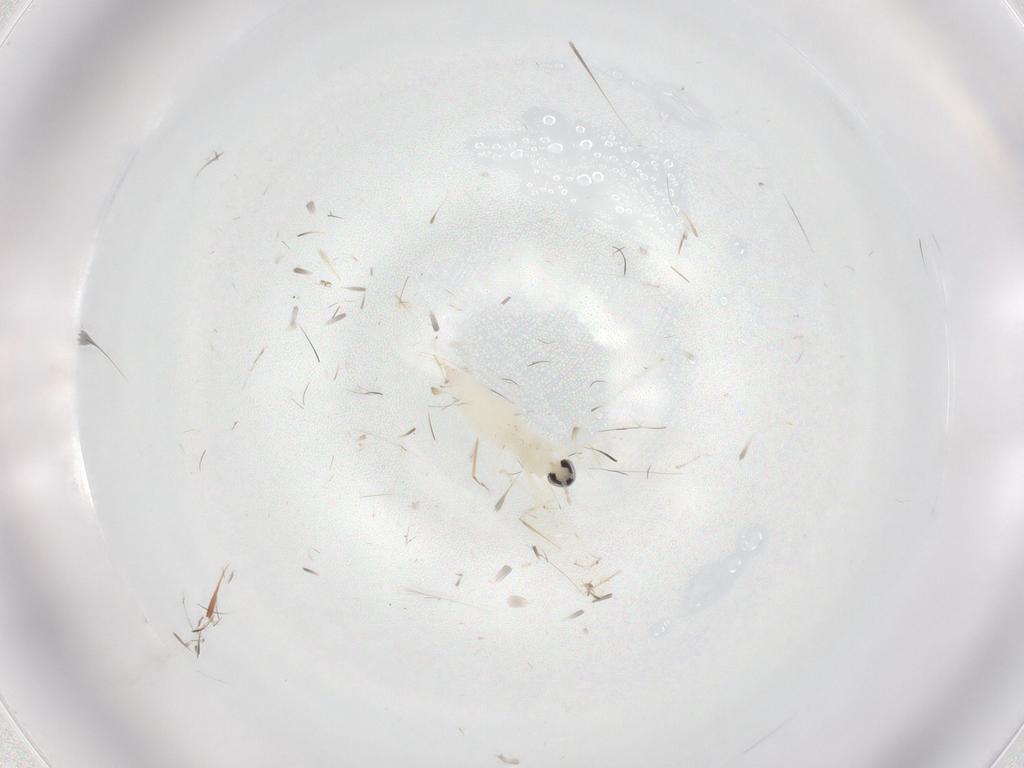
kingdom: Animalia
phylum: Arthropoda
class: Insecta
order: Diptera
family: Cecidomyiidae
